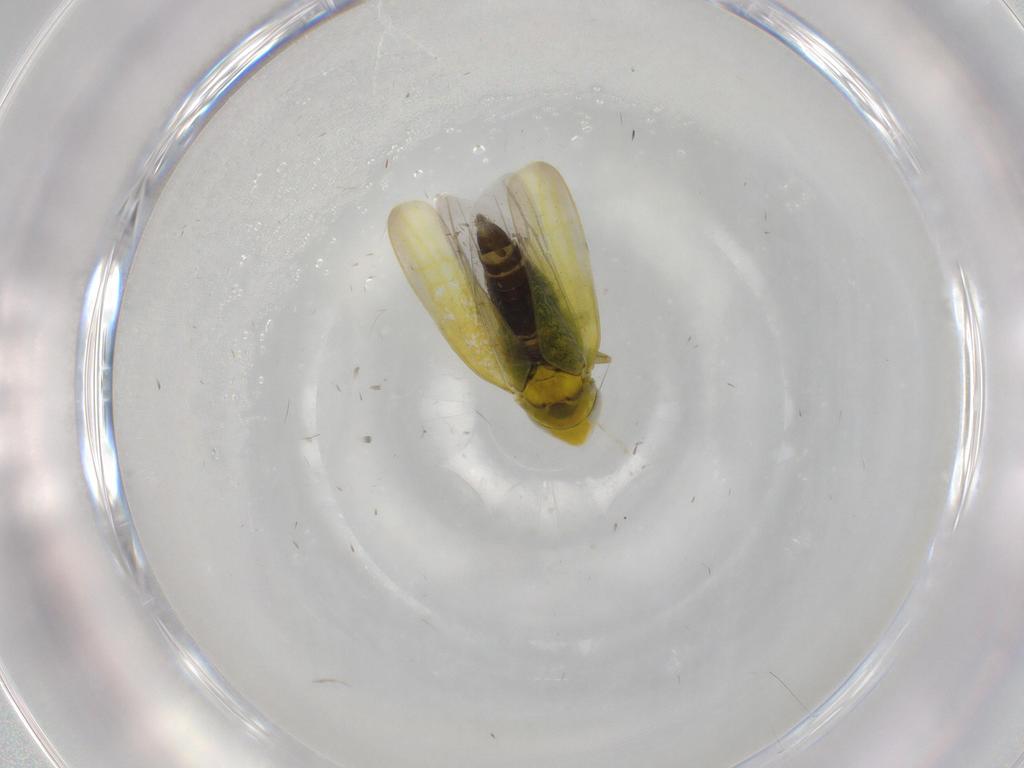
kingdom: Animalia
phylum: Arthropoda
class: Insecta
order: Hemiptera
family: Cicadellidae
